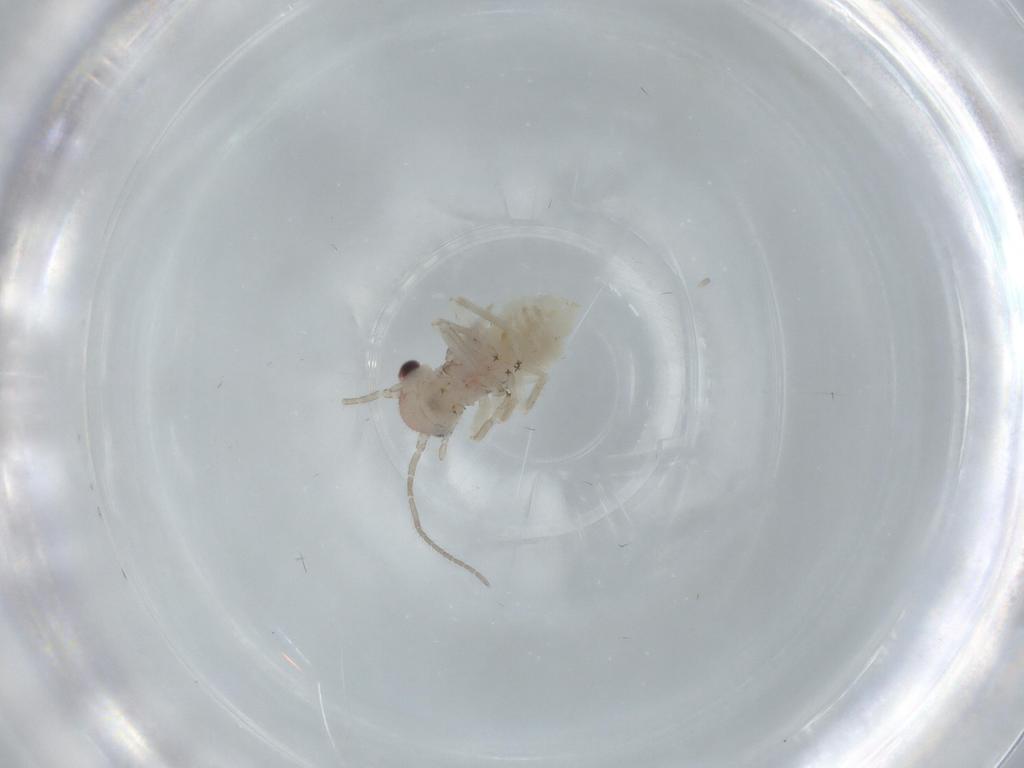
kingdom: Animalia
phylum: Arthropoda
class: Insecta
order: Psocodea
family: Amphipsocidae
